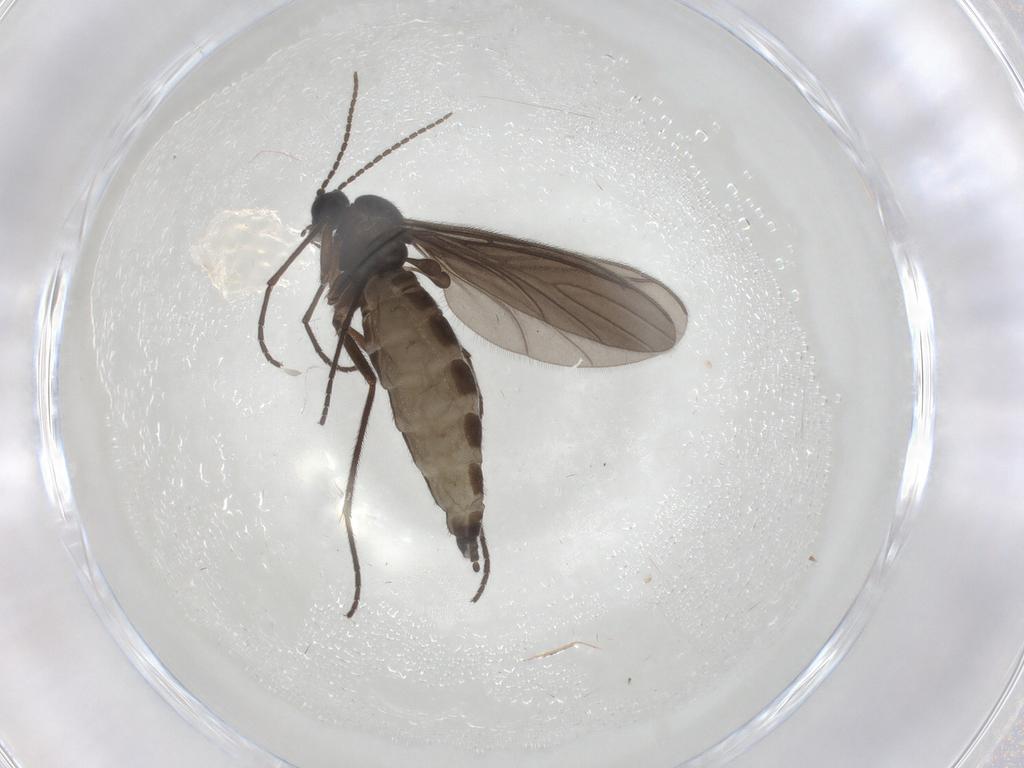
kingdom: Animalia
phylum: Arthropoda
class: Insecta
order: Diptera
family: Sciaridae
